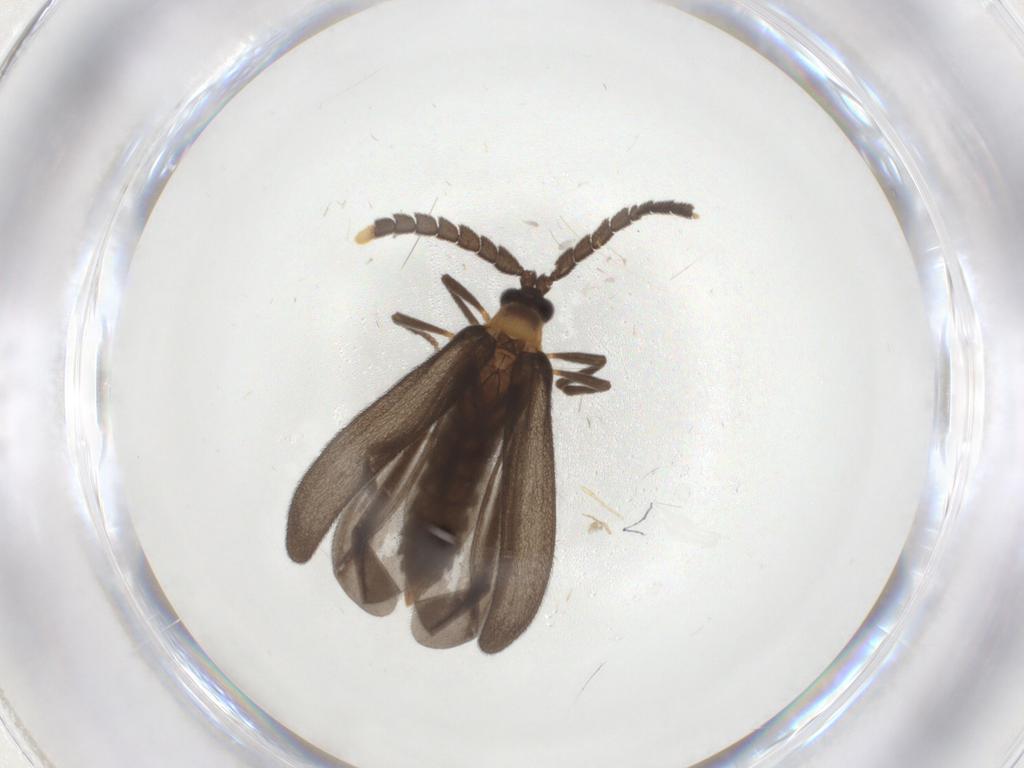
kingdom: Animalia
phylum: Arthropoda
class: Insecta
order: Coleoptera
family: Lycidae
